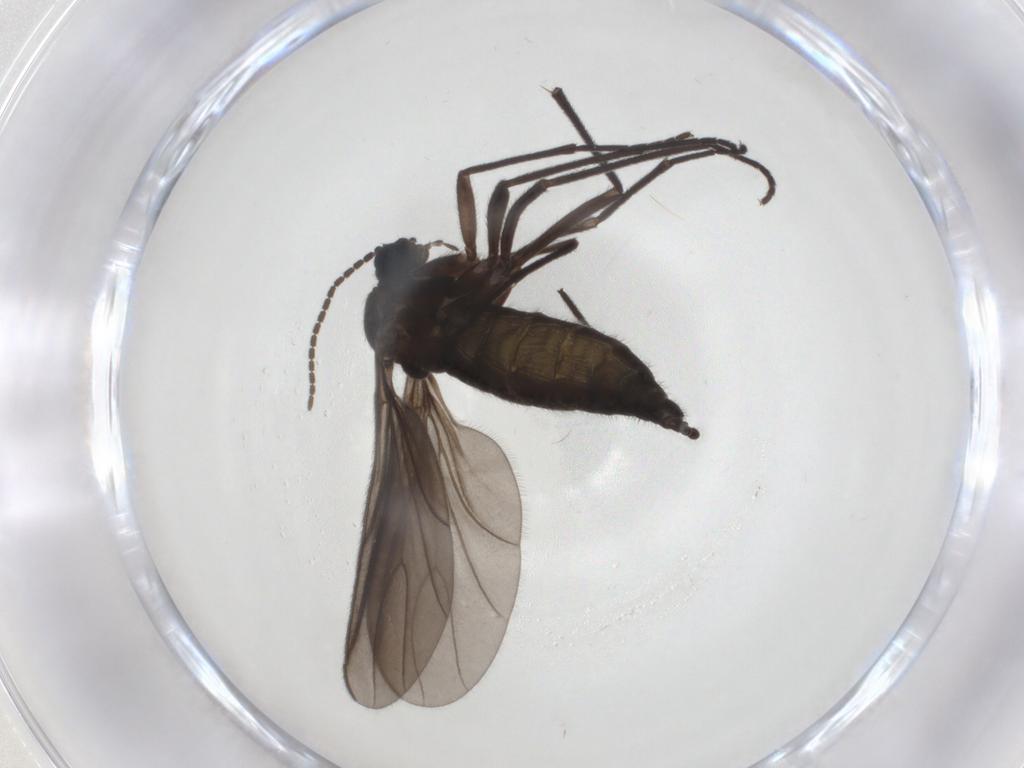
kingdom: Animalia
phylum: Arthropoda
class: Insecta
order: Diptera
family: Sciaridae
